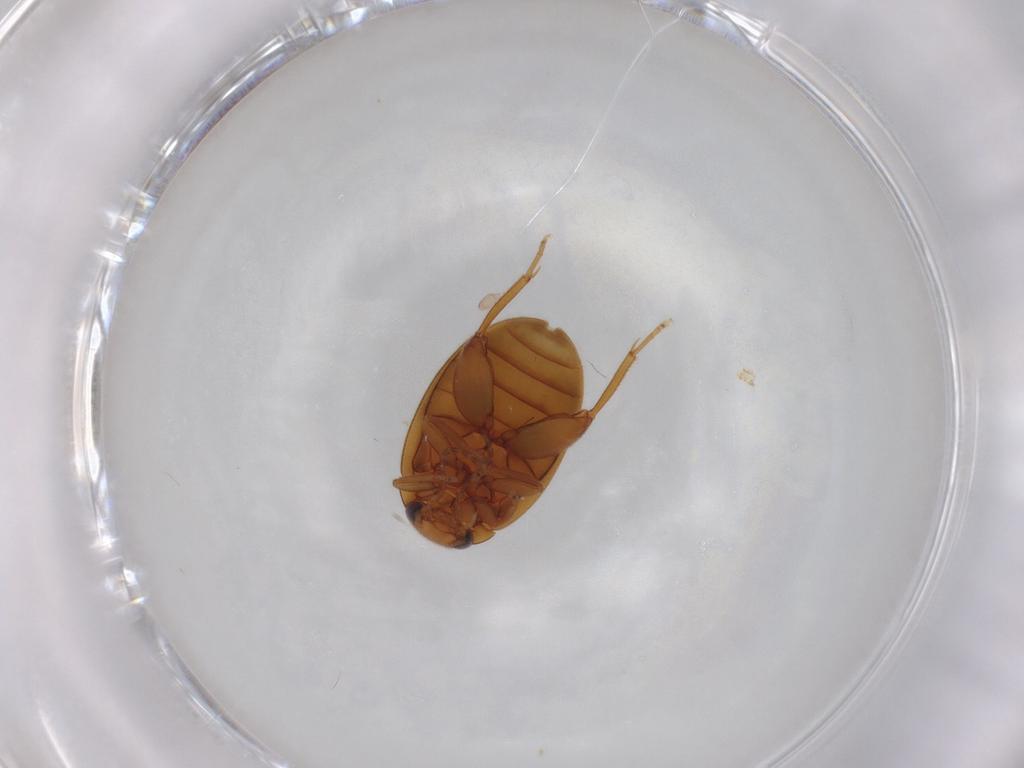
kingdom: Animalia
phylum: Arthropoda
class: Insecta
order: Coleoptera
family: Scirtidae
